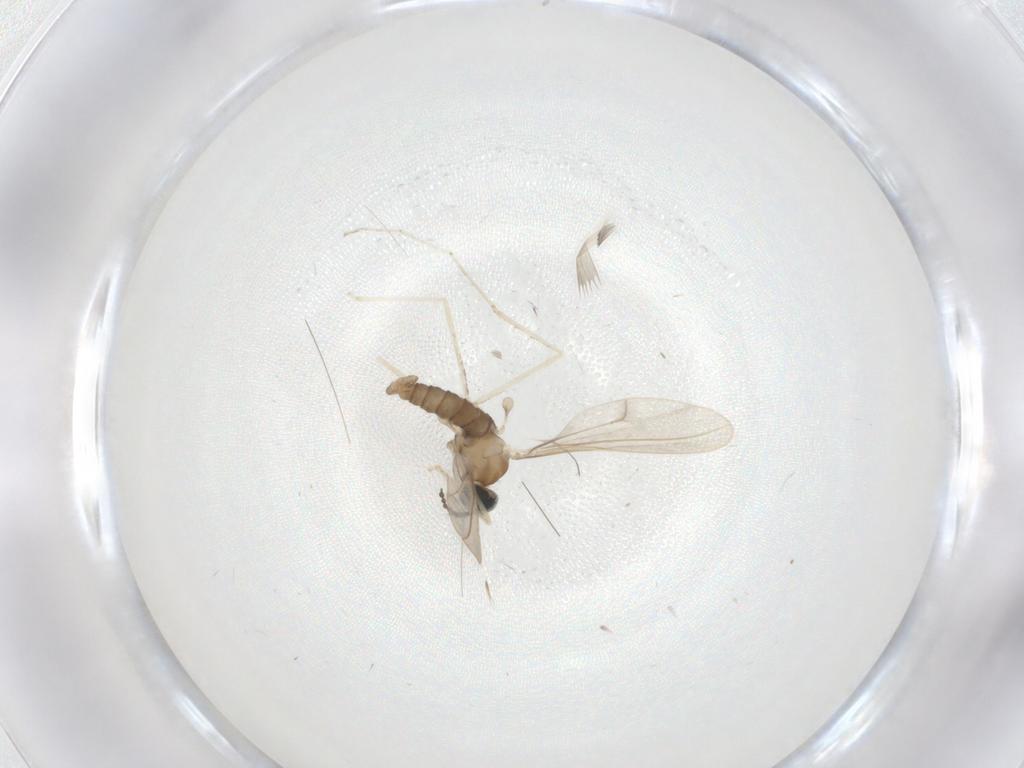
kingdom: Animalia
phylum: Arthropoda
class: Insecta
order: Diptera
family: Cecidomyiidae
